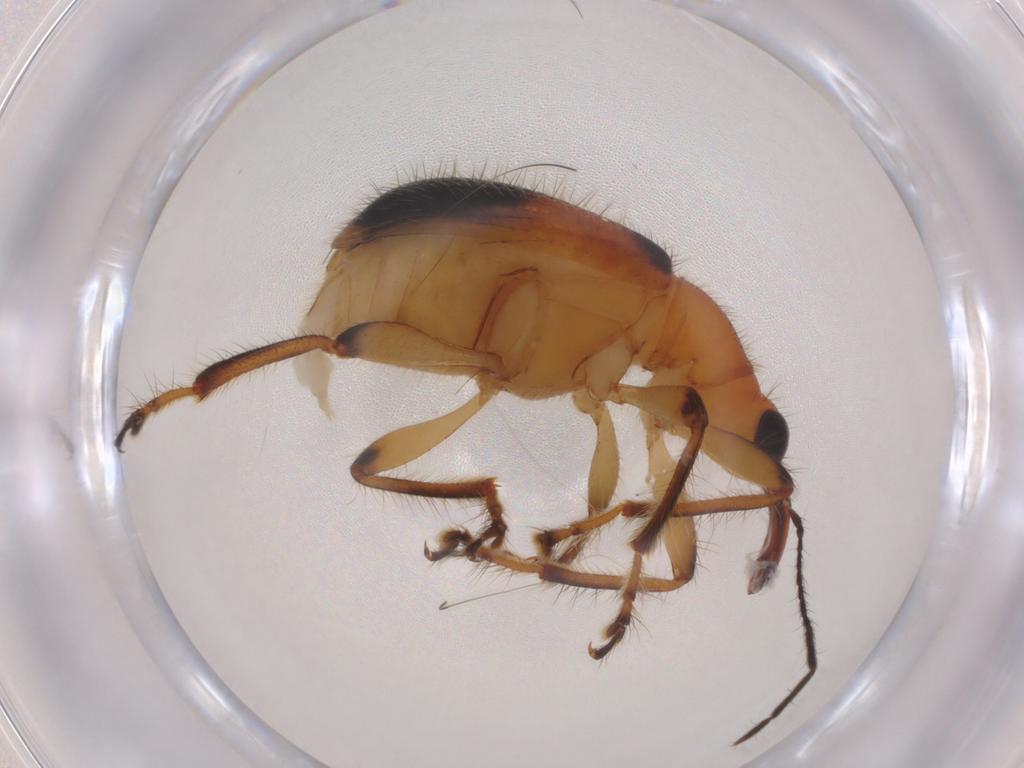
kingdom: Animalia
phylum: Arthropoda
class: Insecta
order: Coleoptera
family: Attelabidae
